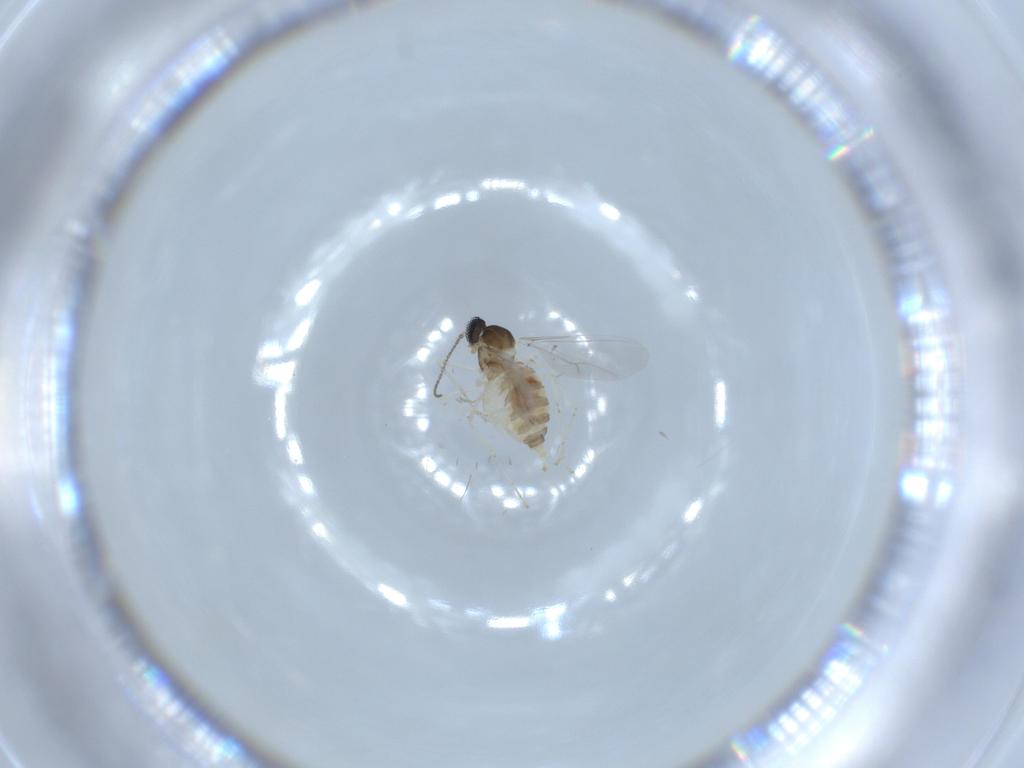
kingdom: Animalia
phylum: Arthropoda
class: Insecta
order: Diptera
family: Cecidomyiidae
